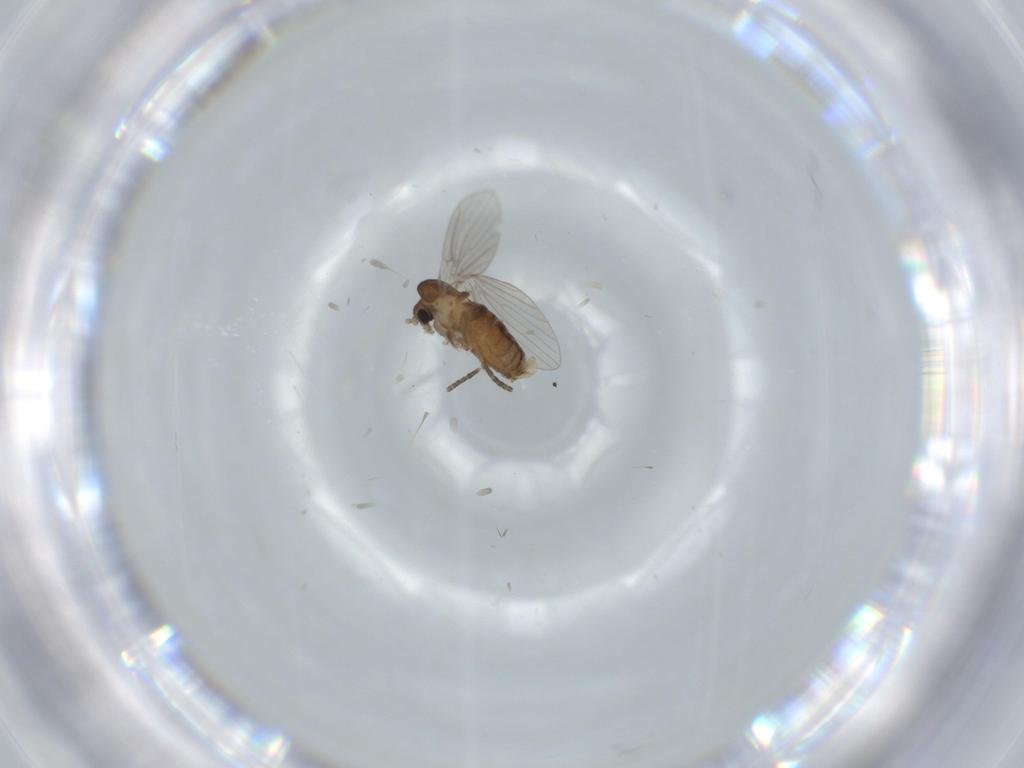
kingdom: Animalia
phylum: Arthropoda
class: Insecta
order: Diptera
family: Psychodidae
